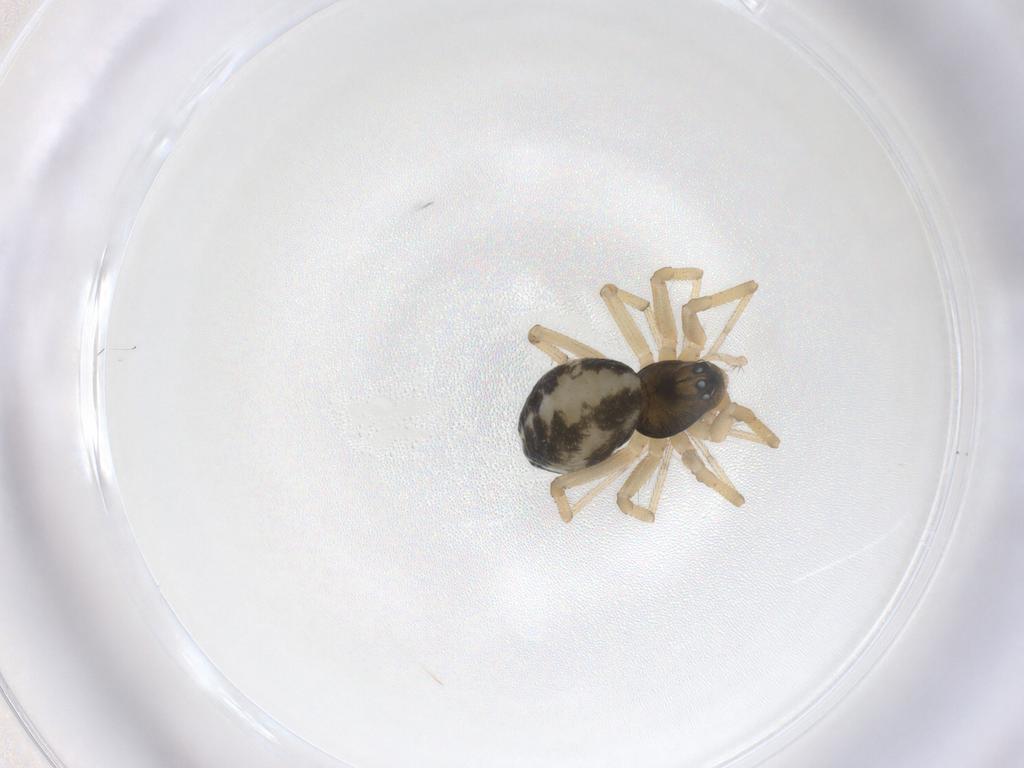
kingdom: Animalia
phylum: Arthropoda
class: Arachnida
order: Araneae
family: Linyphiidae
